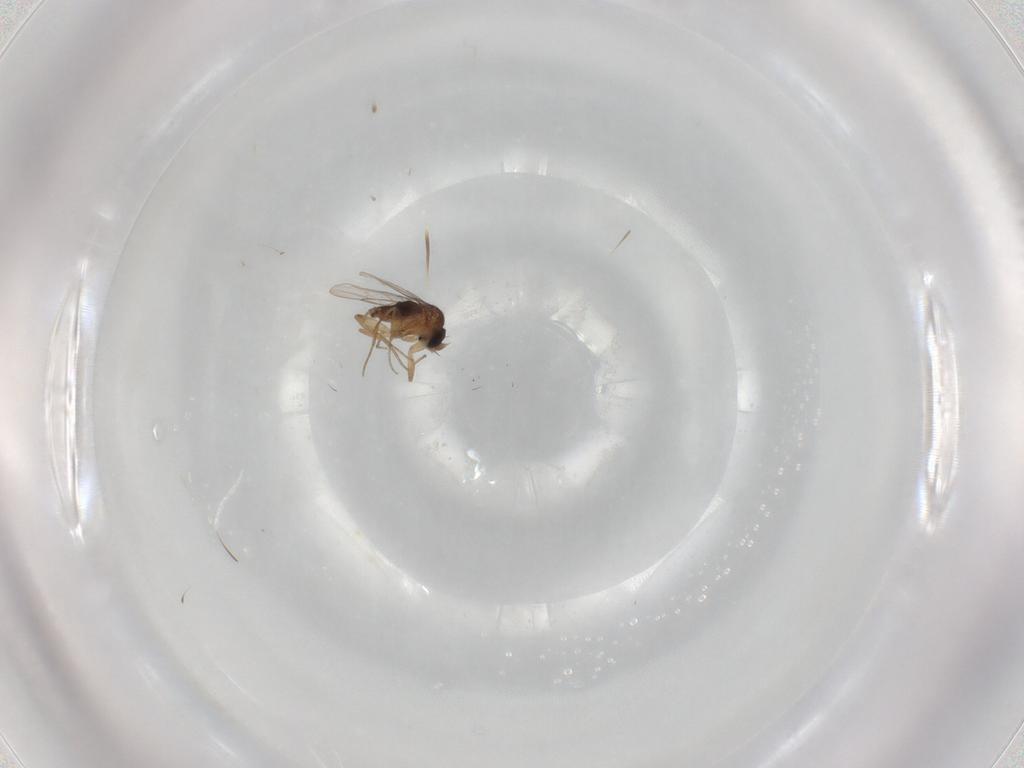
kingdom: Animalia
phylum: Arthropoda
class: Insecta
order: Diptera
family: Phoridae
